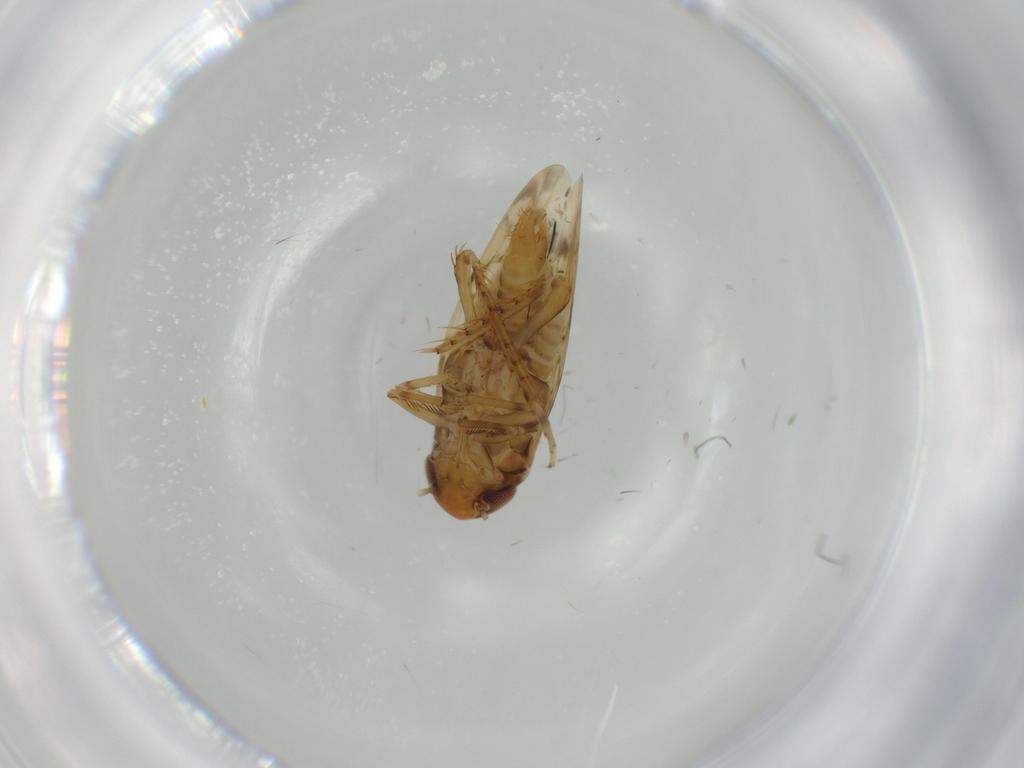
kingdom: Animalia
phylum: Arthropoda
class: Insecta
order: Hemiptera
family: Cicadellidae
